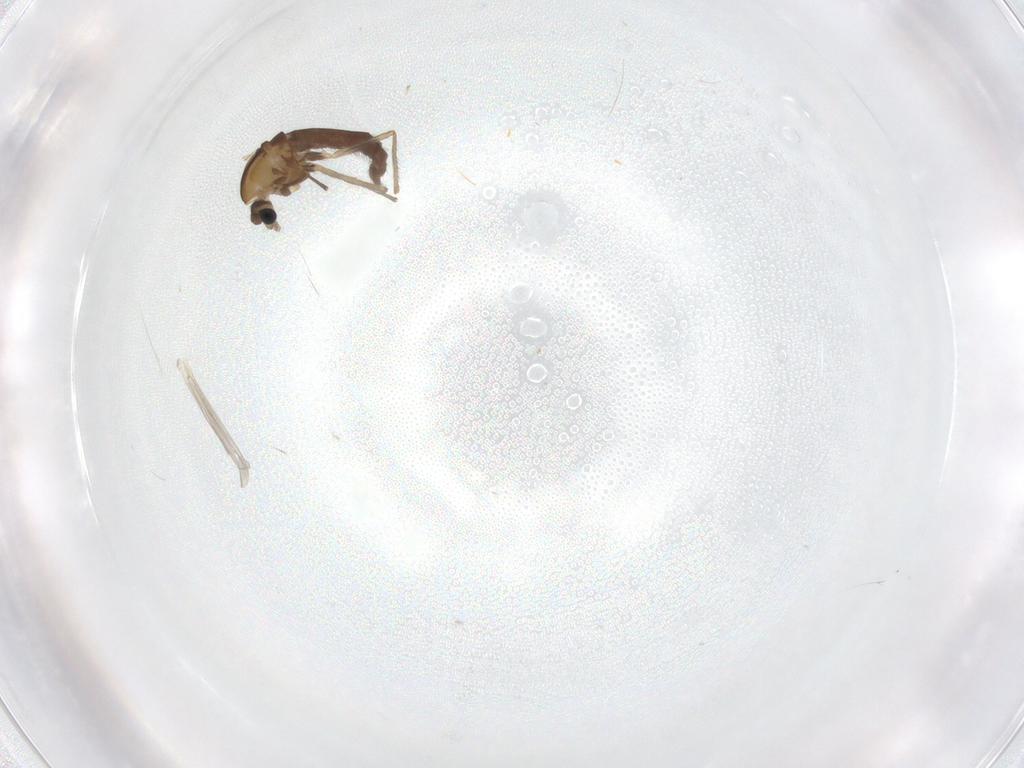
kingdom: Animalia
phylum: Arthropoda
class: Insecta
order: Diptera
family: Chironomidae
